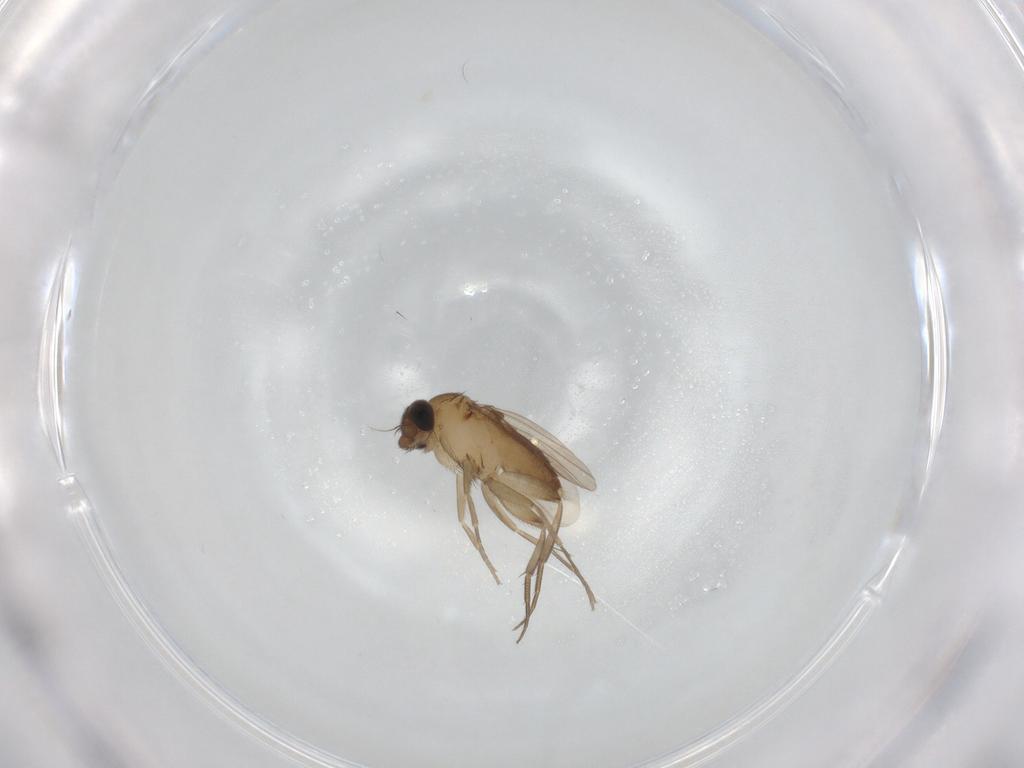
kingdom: Animalia
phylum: Arthropoda
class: Insecta
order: Diptera
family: Phoridae
